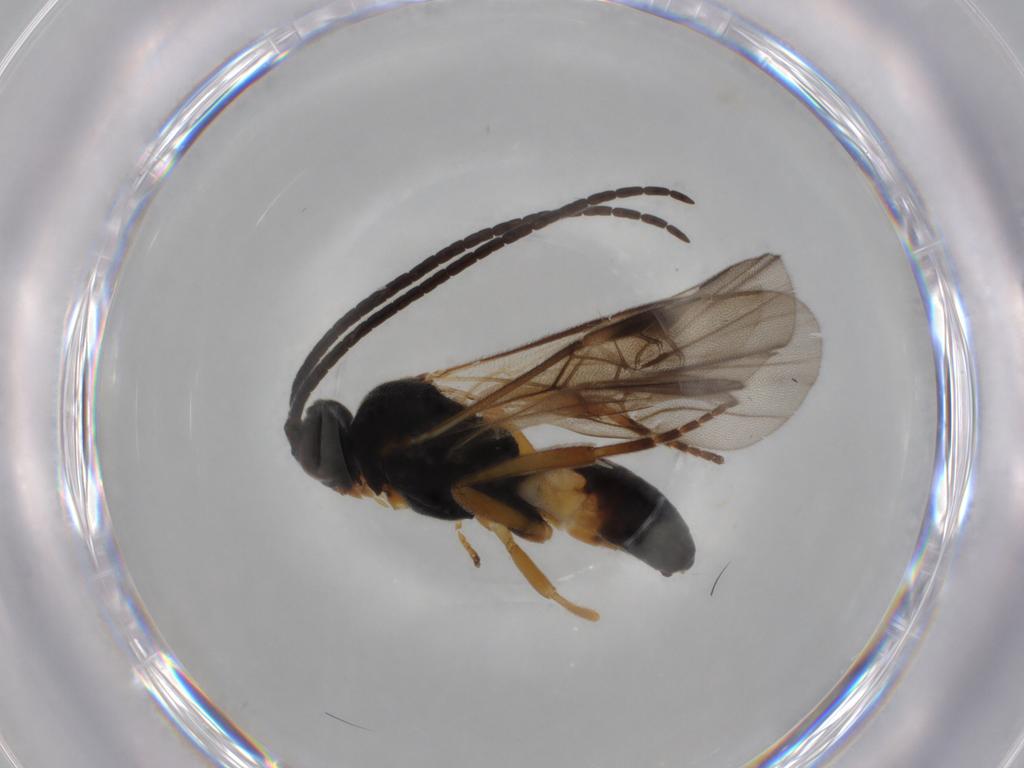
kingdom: Animalia
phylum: Arthropoda
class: Insecta
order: Hymenoptera
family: Braconidae
